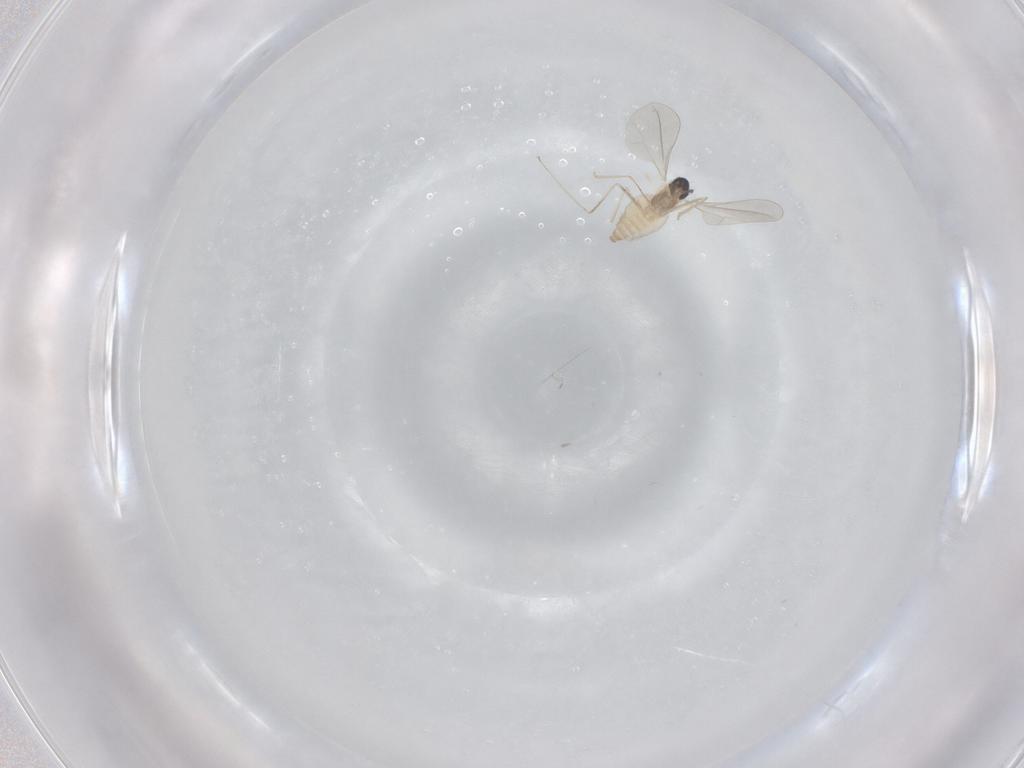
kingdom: Animalia
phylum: Arthropoda
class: Insecta
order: Diptera
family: Cecidomyiidae
